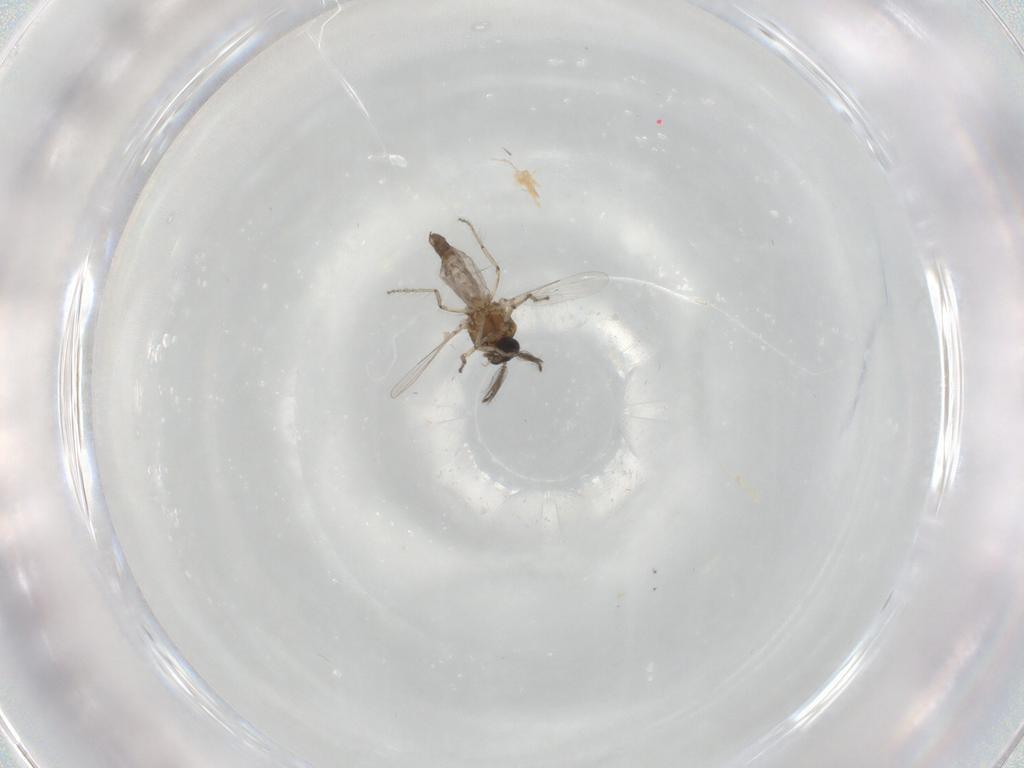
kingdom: Animalia
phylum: Arthropoda
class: Insecta
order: Diptera
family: Ceratopogonidae
